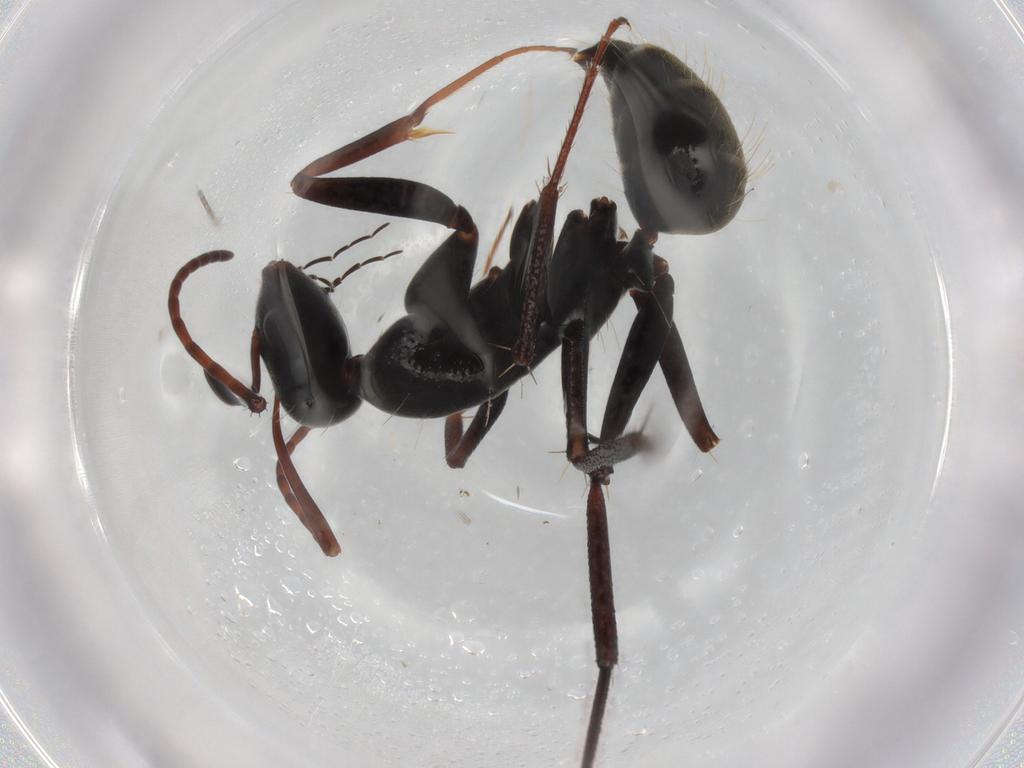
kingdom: Animalia
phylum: Arthropoda
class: Insecta
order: Hymenoptera
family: Formicidae
